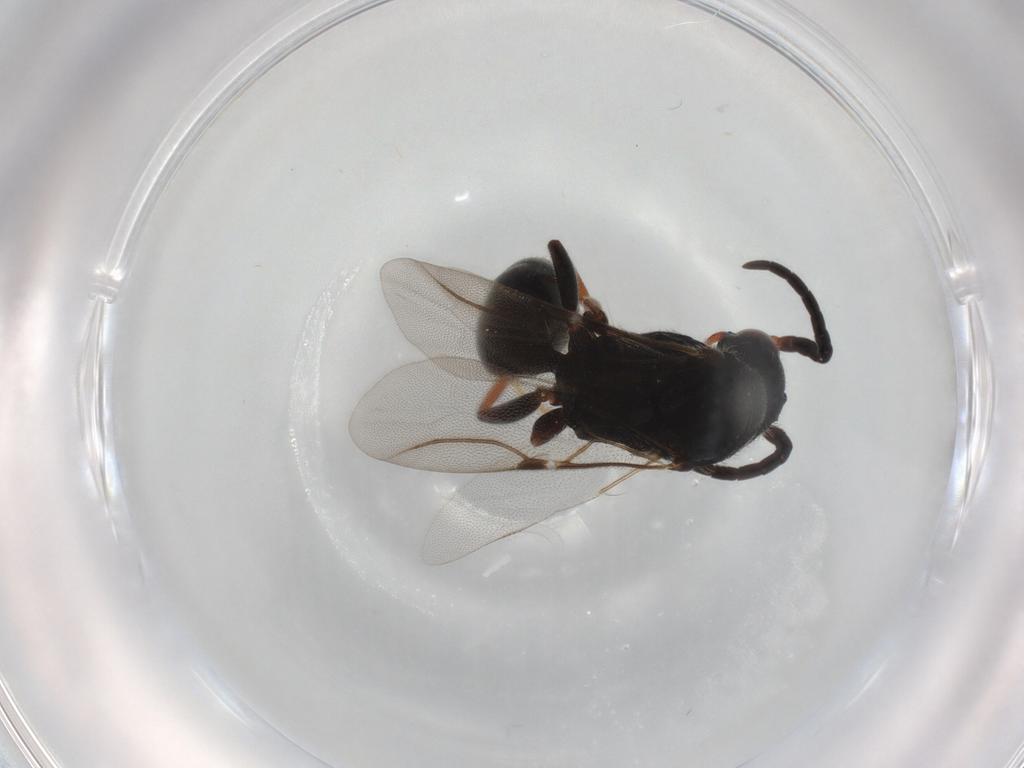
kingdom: Animalia
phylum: Arthropoda
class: Insecta
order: Hymenoptera
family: Bethylidae
